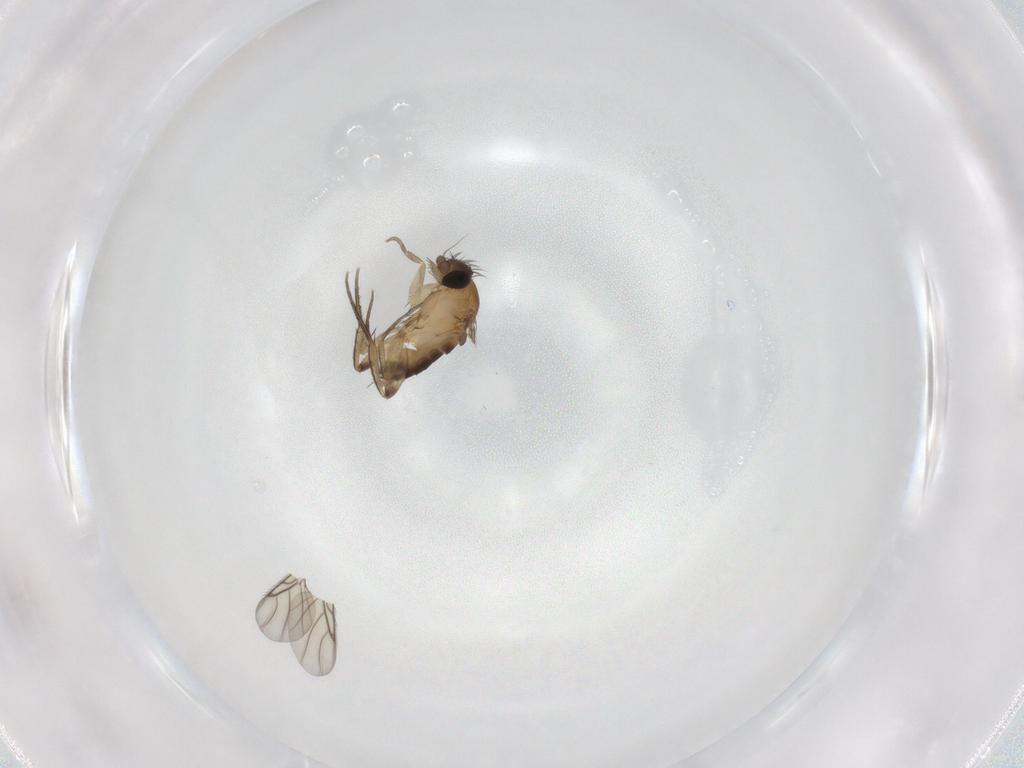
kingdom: Animalia
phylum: Arthropoda
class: Insecta
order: Diptera
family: Phoridae
